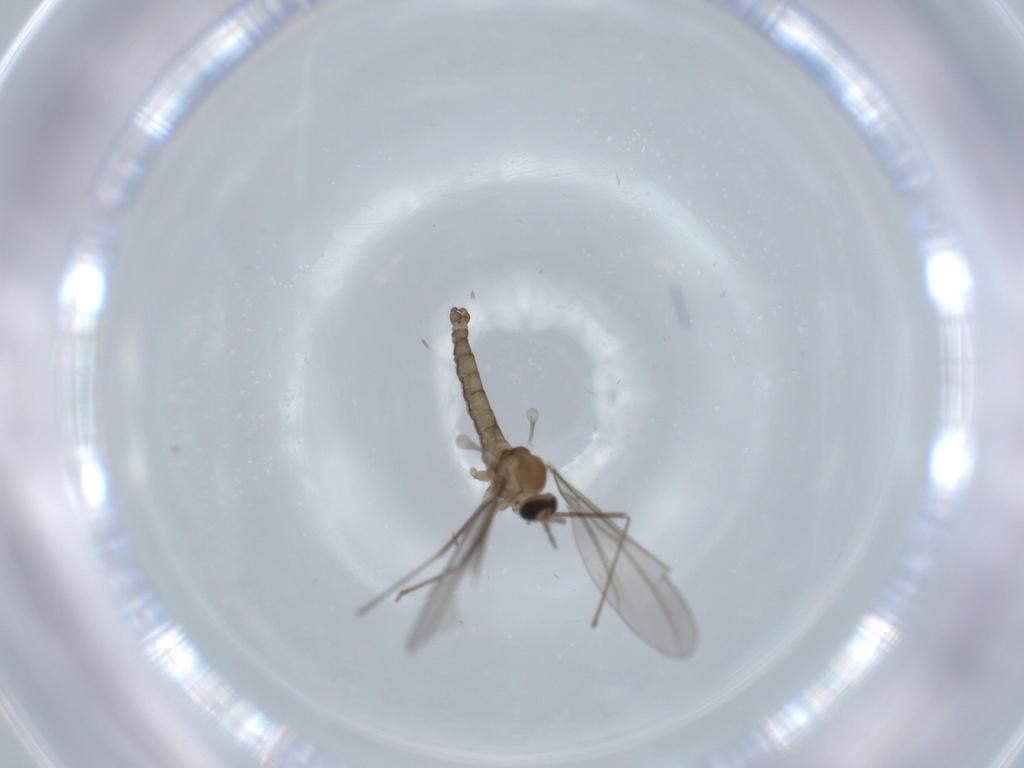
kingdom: Animalia
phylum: Arthropoda
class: Insecta
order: Diptera
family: Cecidomyiidae
